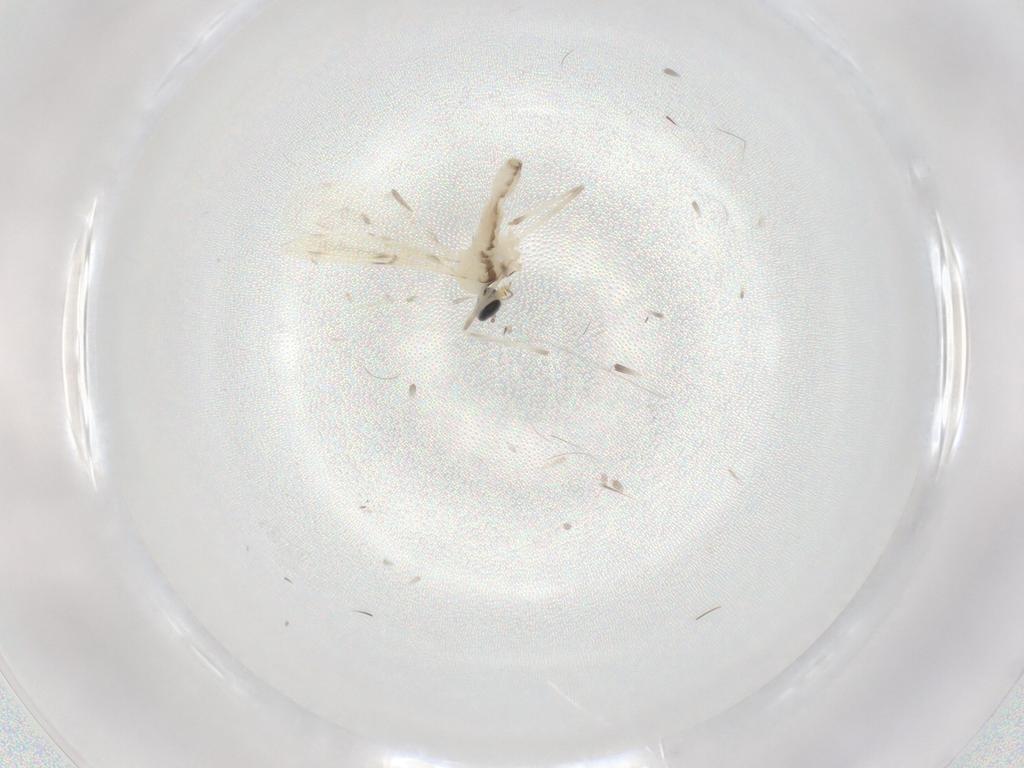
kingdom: Animalia
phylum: Arthropoda
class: Insecta
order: Diptera
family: Cecidomyiidae
